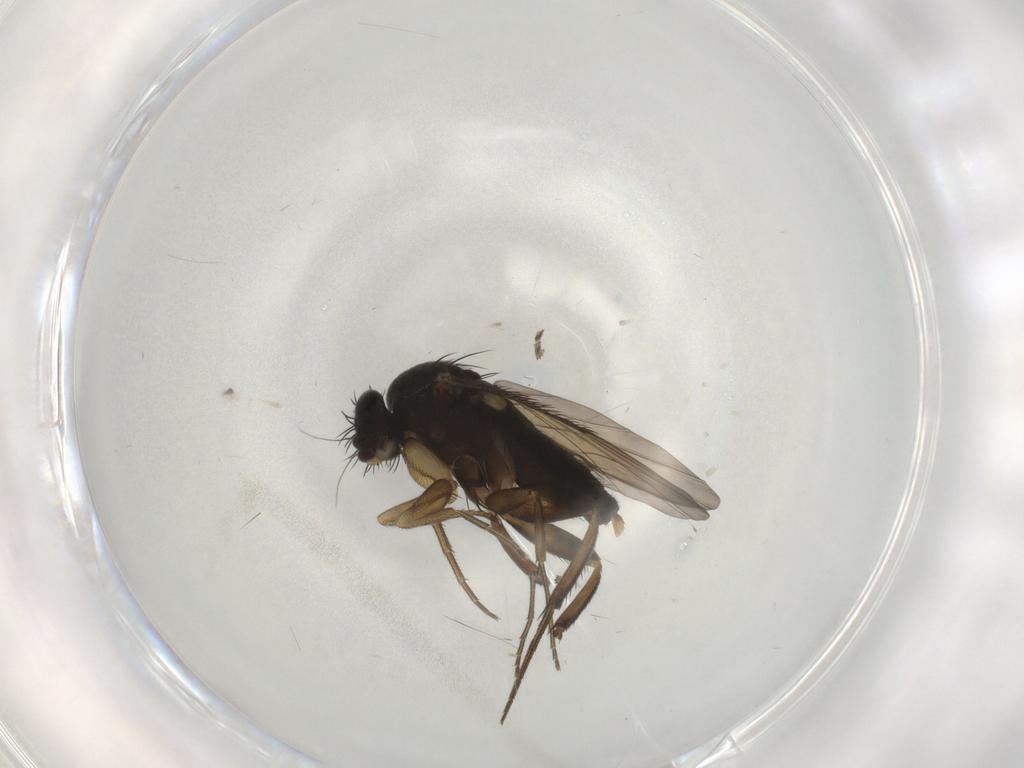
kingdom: Animalia
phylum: Arthropoda
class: Insecta
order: Diptera
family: Phoridae
